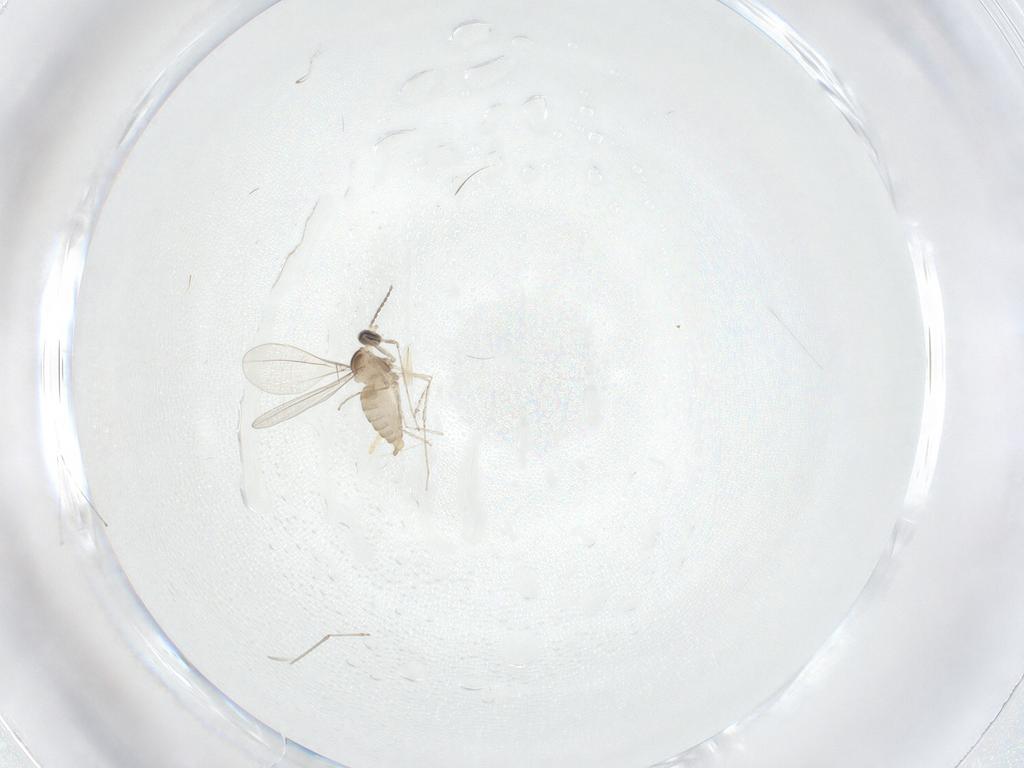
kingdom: Animalia
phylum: Arthropoda
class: Insecta
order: Diptera
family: Cecidomyiidae
